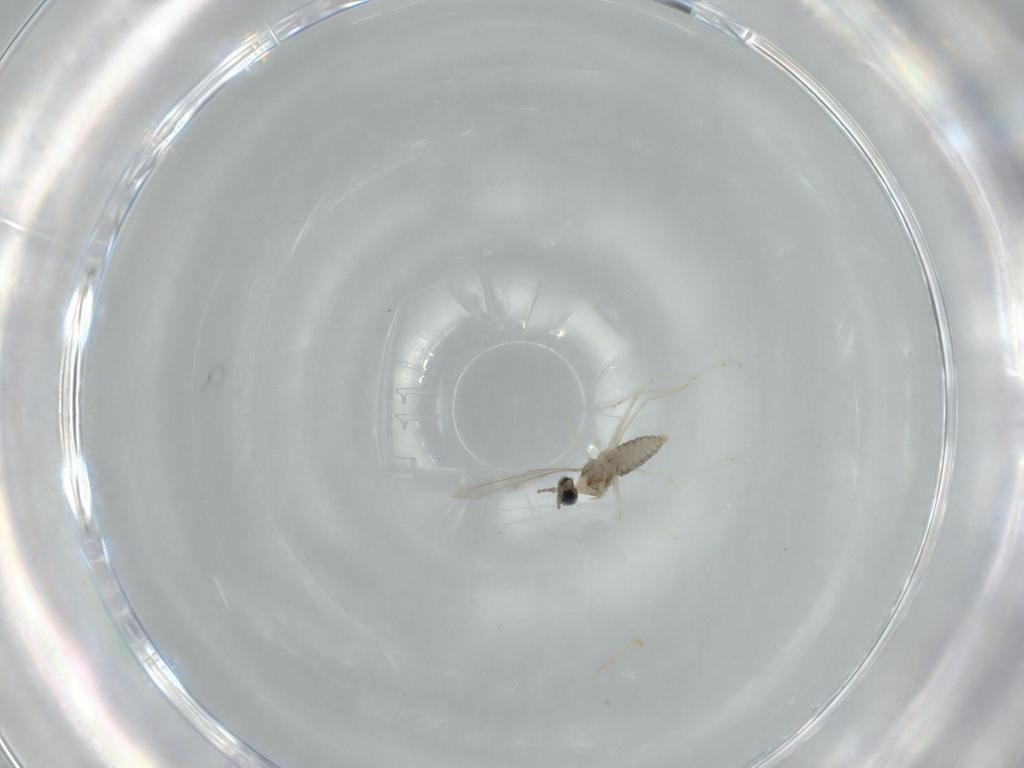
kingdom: Animalia
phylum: Arthropoda
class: Insecta
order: Diptera
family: Cecidomyiidae
